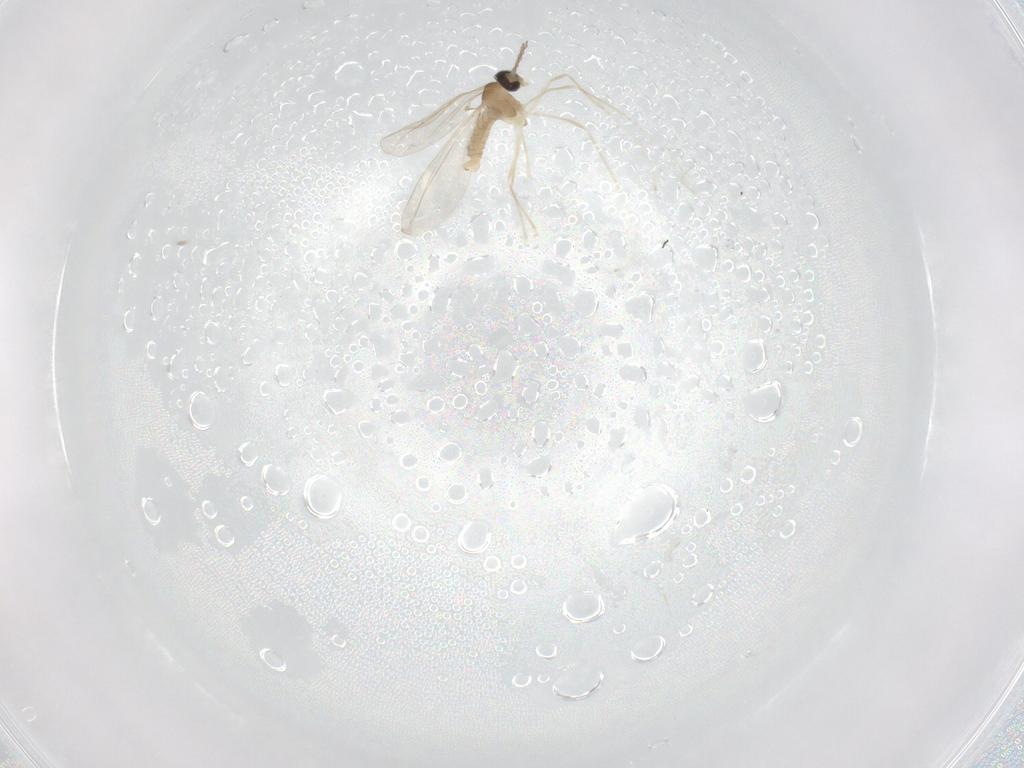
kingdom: Animalia
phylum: Arthropoda
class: Insecta
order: Diptera
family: Cecidomyiidae
